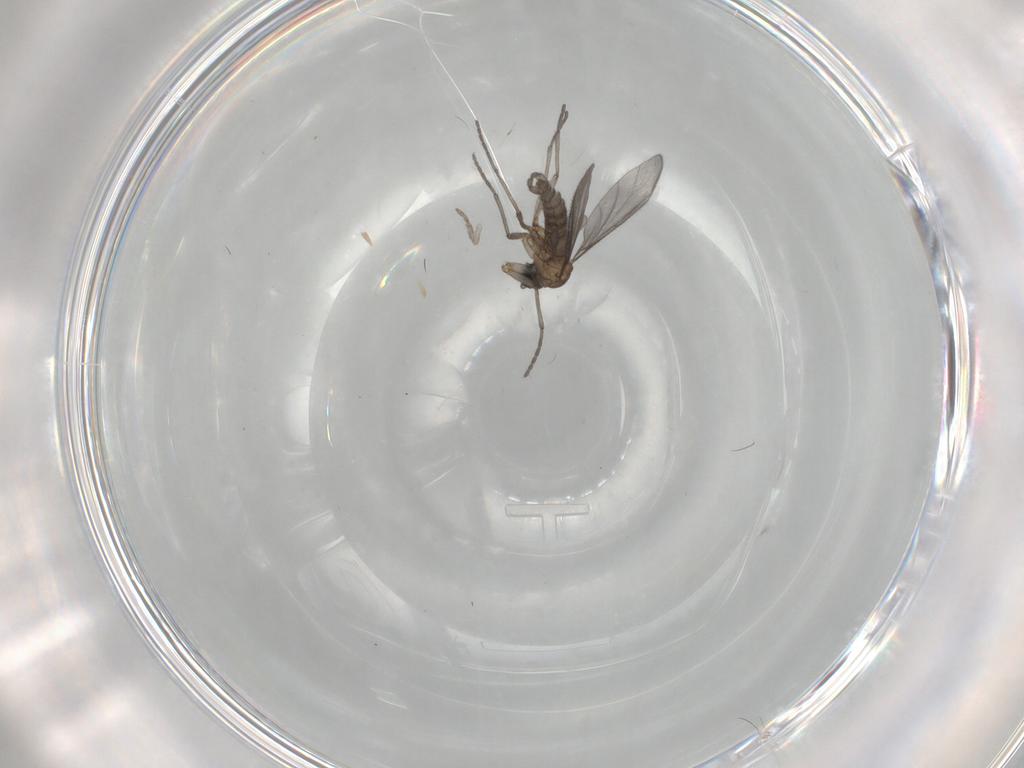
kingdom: Animalia
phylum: Arthropoda
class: Insecta
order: Diptera
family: Sciaridae
